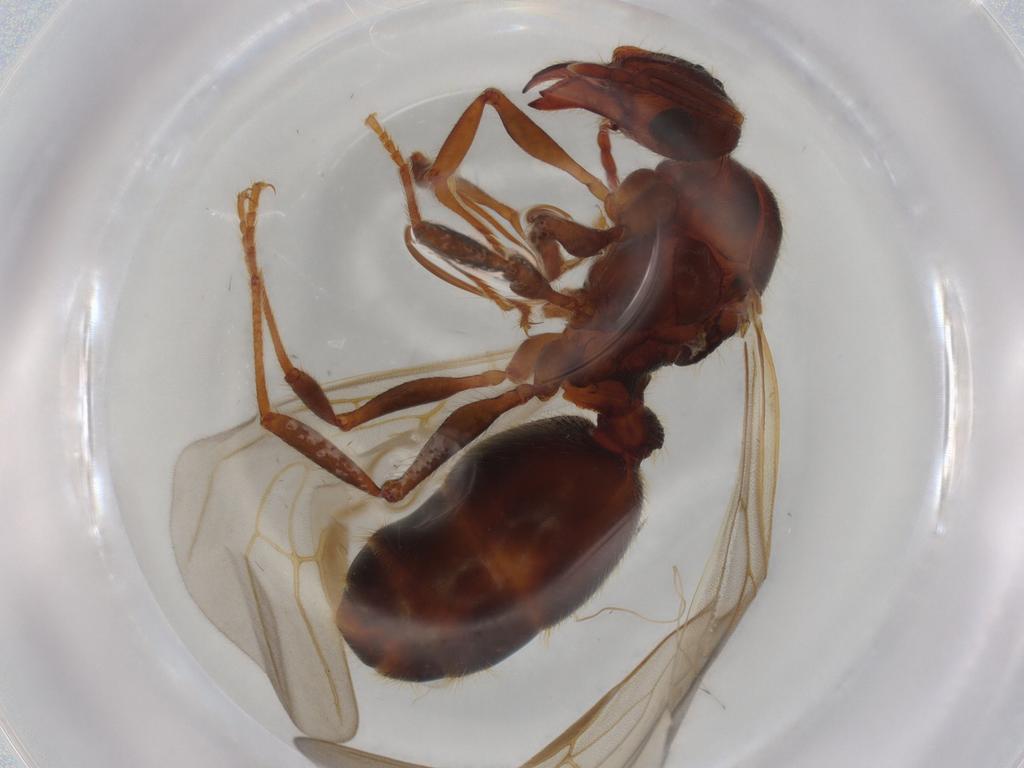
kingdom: Animalia
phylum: Arthropoda
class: Insecta
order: Hymenoptera
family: Formicidae
